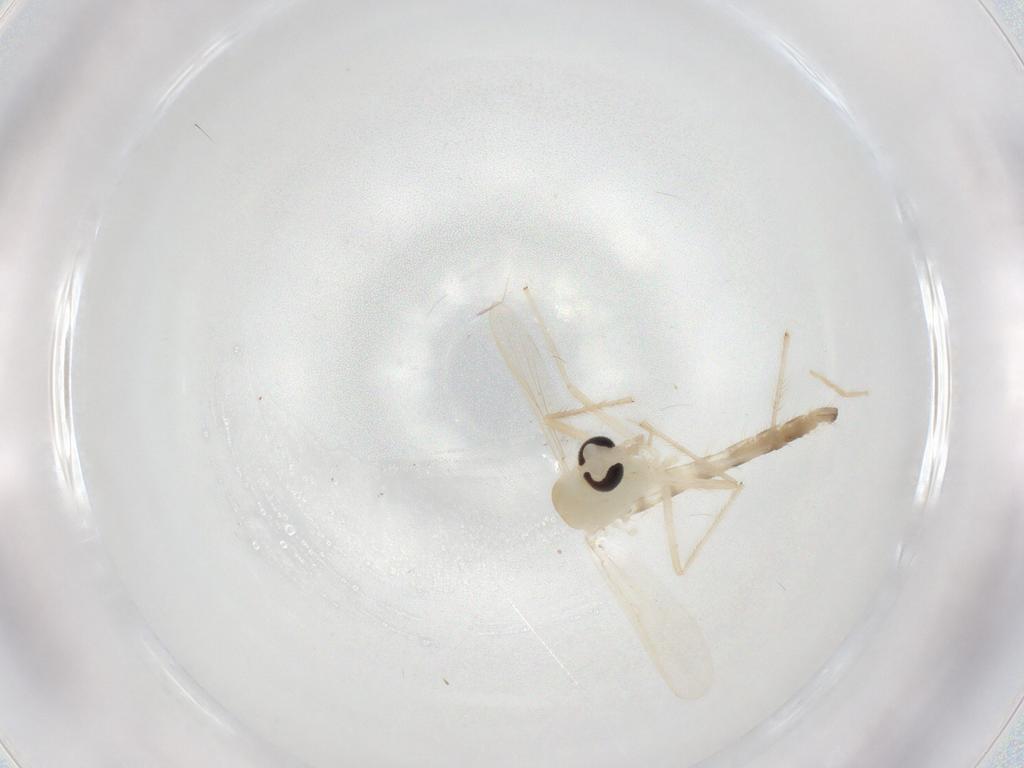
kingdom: Animalia
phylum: Arthropoda
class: Insecta
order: Diptera
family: Chironomidae
